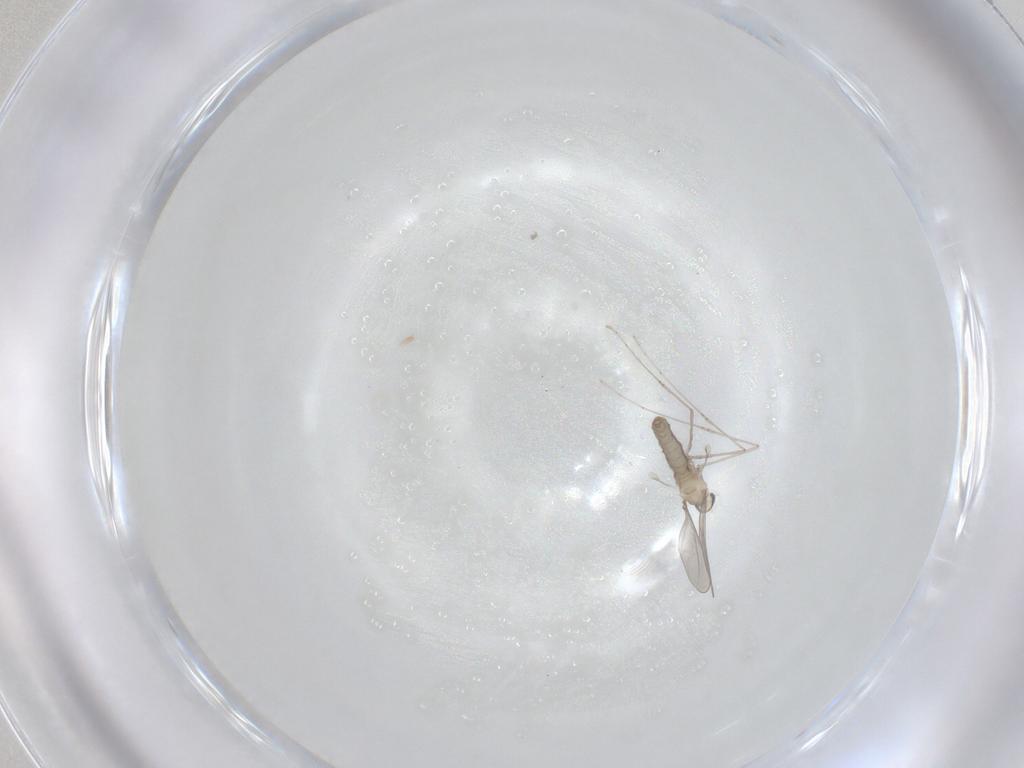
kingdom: Animalia
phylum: Arthropoda
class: Insecta
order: Diptera
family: Cecidomyiidae
